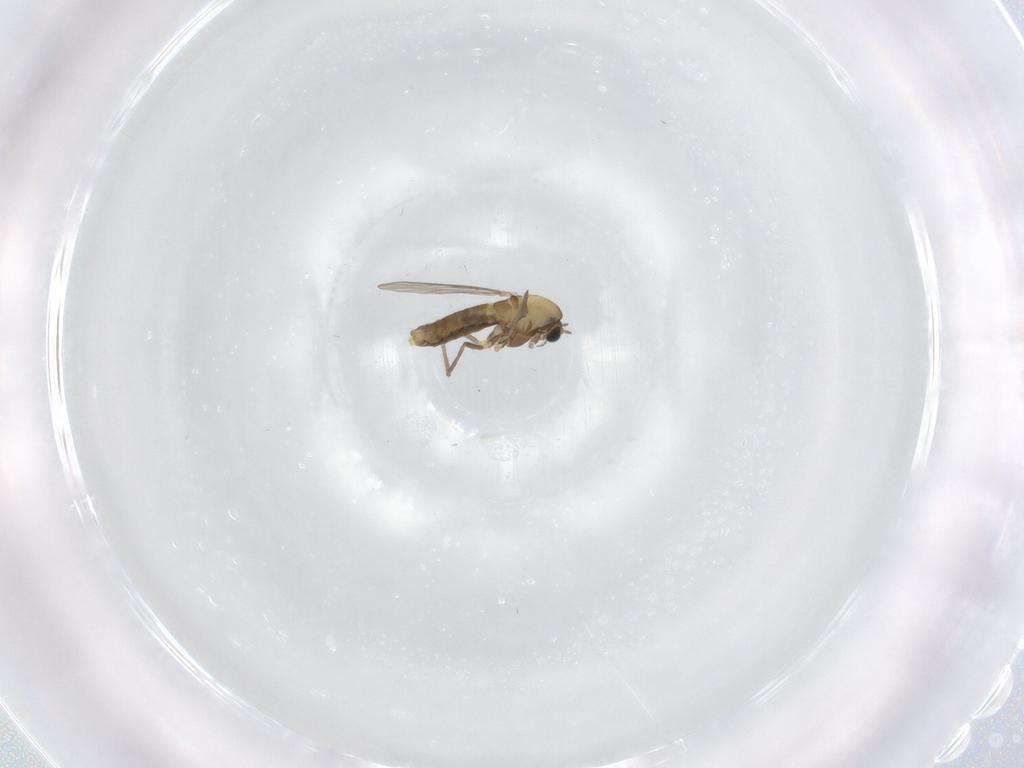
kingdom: Animalia
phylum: Arthropoda
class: Insecta
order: Diptera
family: Chironomidae
